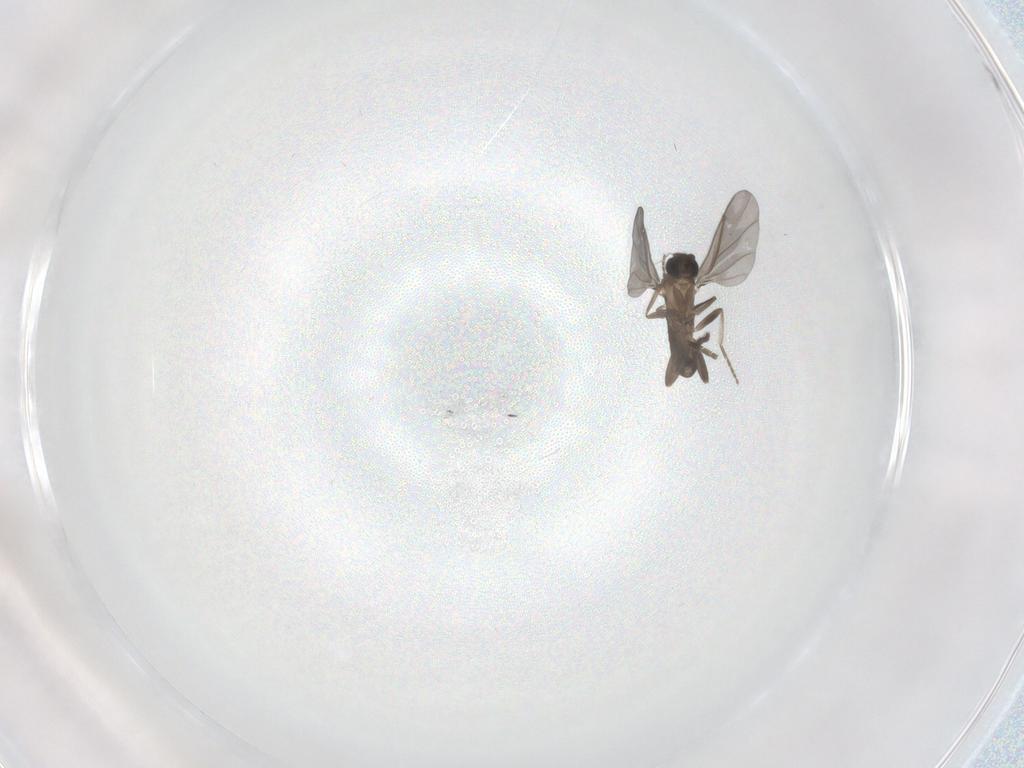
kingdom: Animalia
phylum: Arthropoda
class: Insecta
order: Diptera
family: Phoridae
